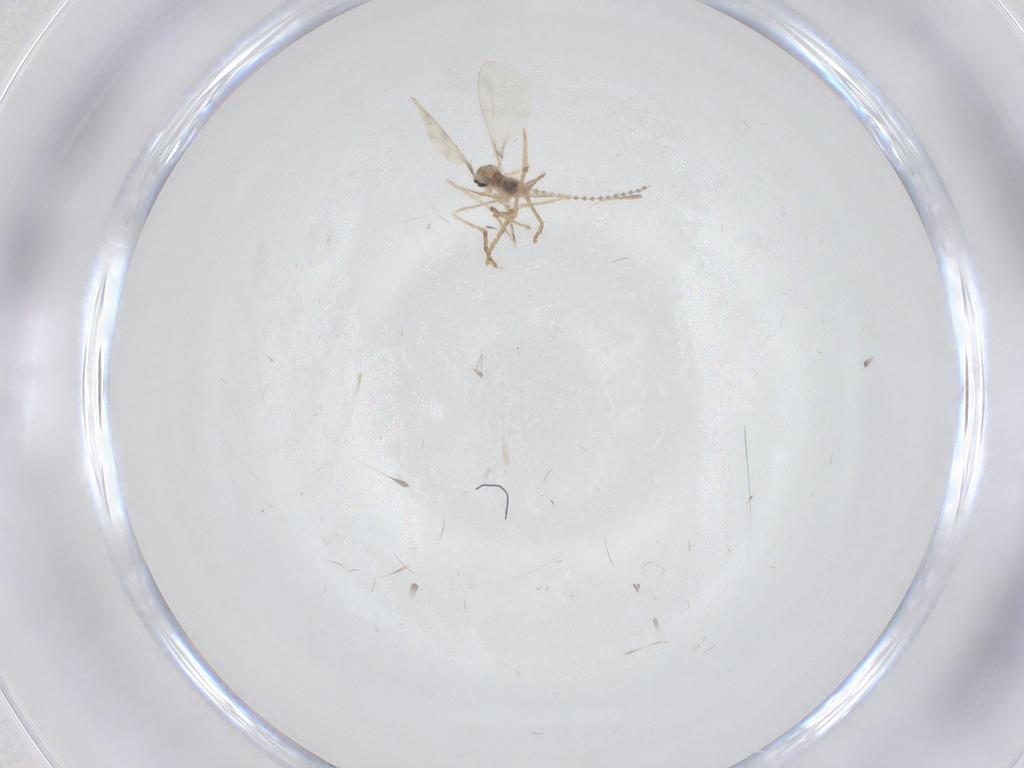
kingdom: Animalia
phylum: Arthropoda
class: Insecta
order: Diptera
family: Cecidomyiidae
